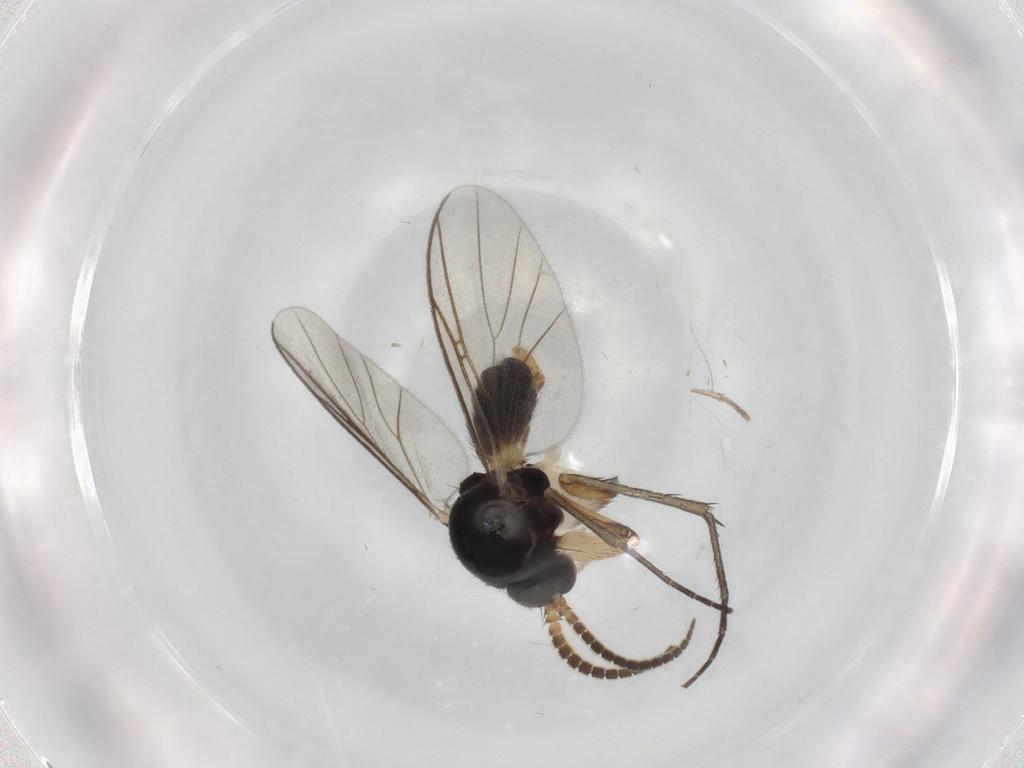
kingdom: Animalia
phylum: Arthropoda
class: Insecta
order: Diptera
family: Mycetophilidae
